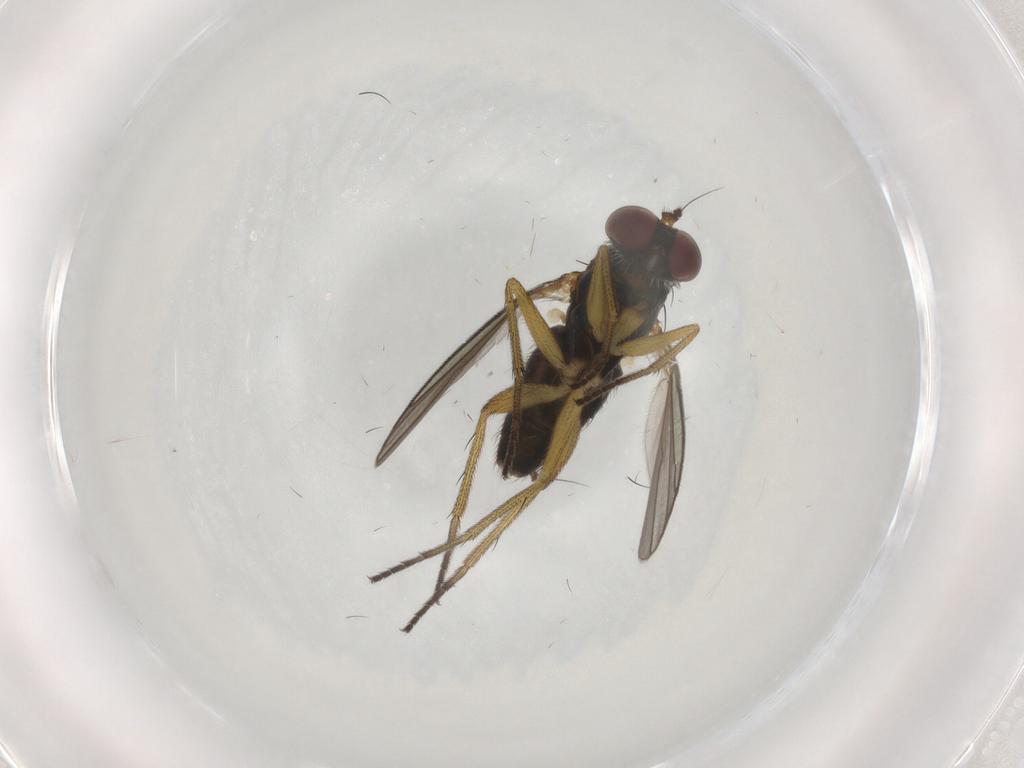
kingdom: Animalia
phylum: Arthropoda
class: Insecta
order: Diptera
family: Dolichopodidae
